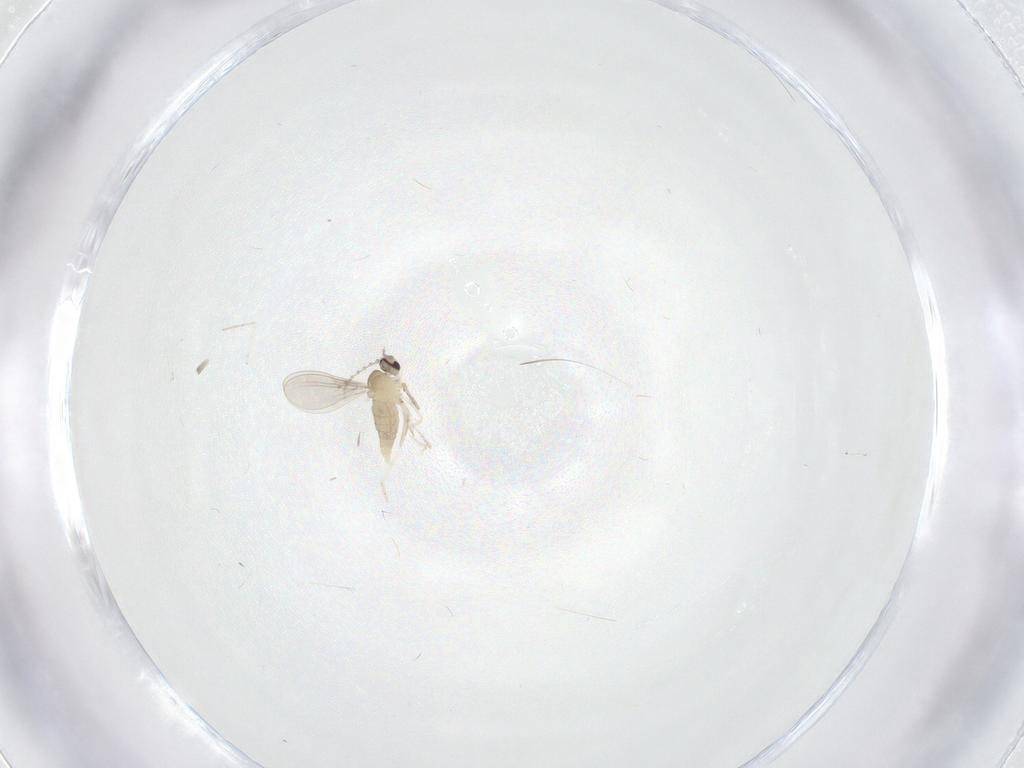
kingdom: Animalia
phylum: Arthropoda
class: Insecta
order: Diptera
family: Cecidomyiidae
